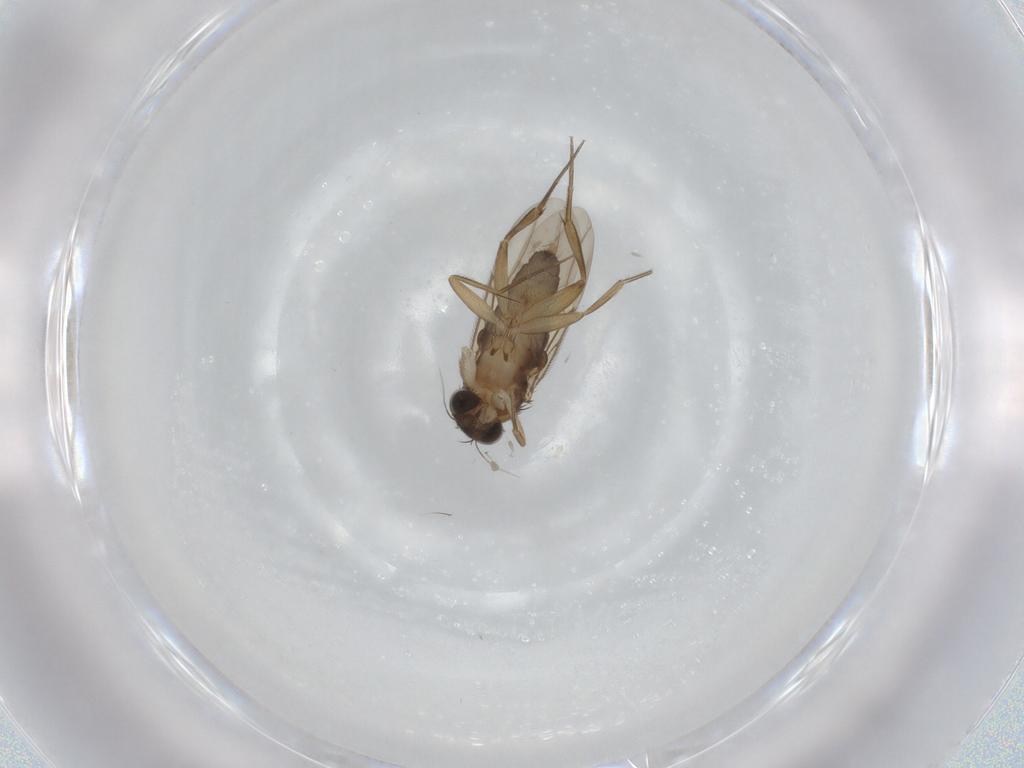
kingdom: Animalia
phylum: Arthropoda
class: Insecta
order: Diptera
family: Phoridae
